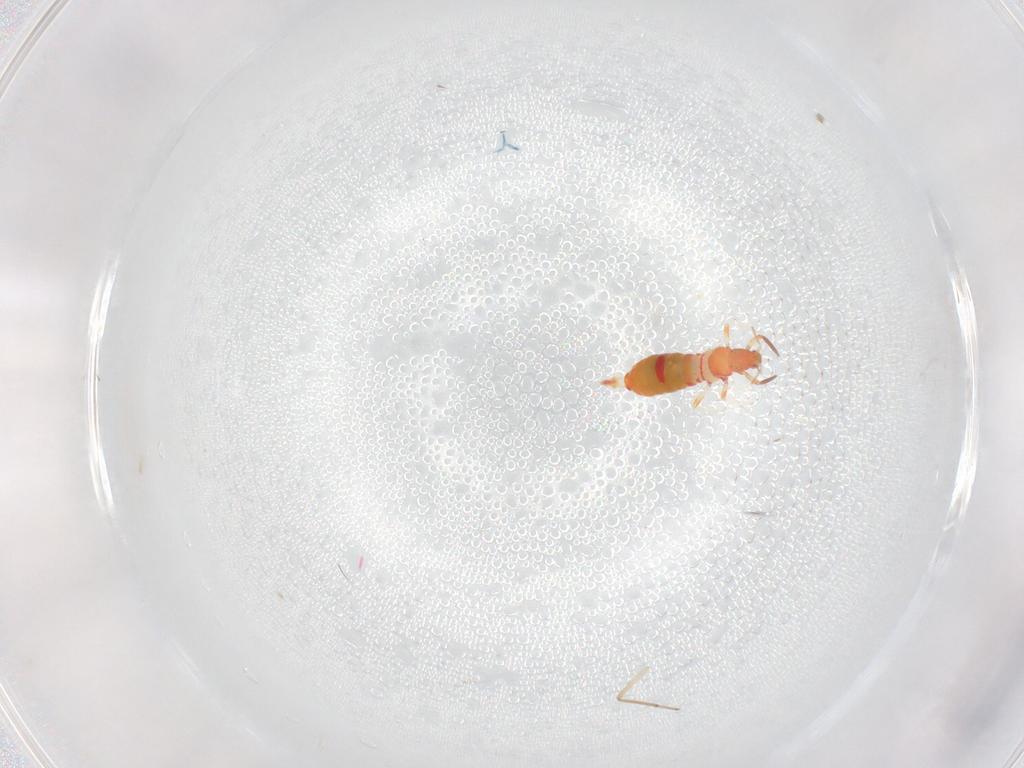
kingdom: Animalia
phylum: Arthropoda
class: Insecta
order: Thysanoptera
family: Aeolothripidae
